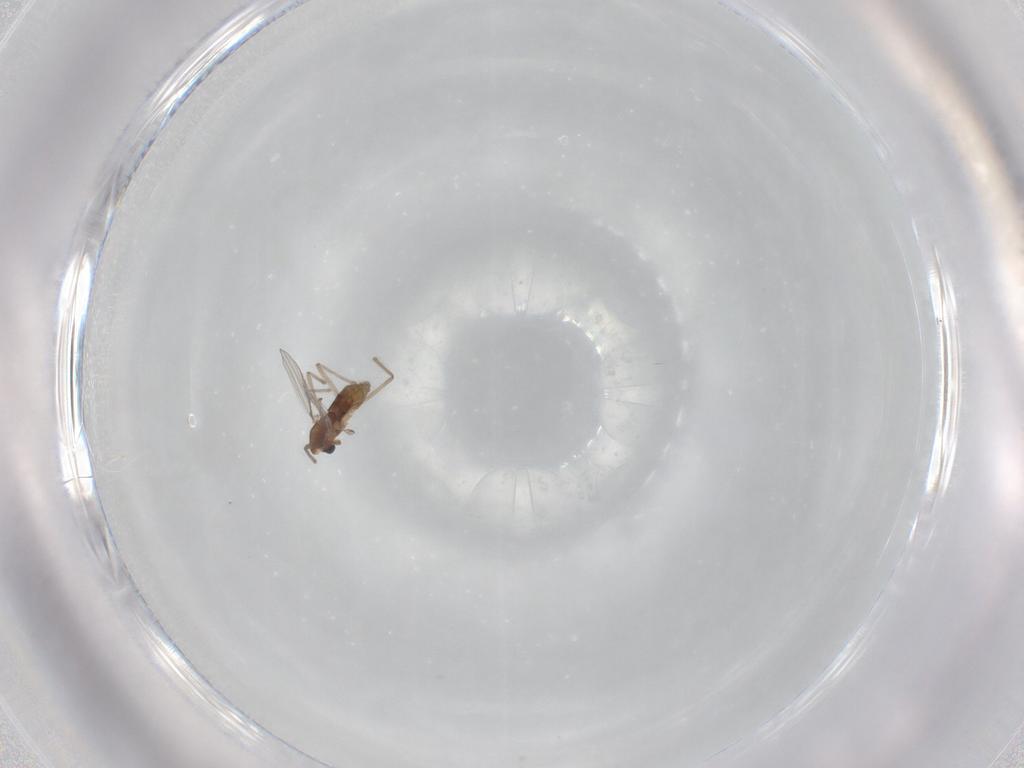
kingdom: Animalia
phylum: Arthropoda
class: Insecta
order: Diptera
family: Chironomidae
